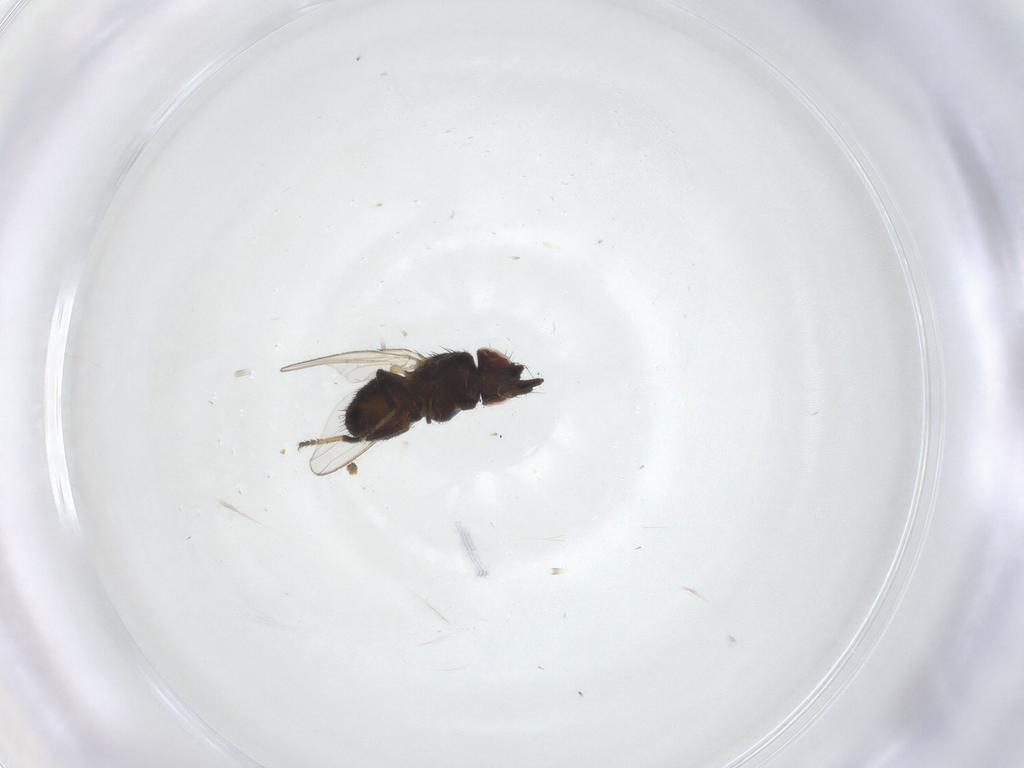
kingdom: Animalia
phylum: Arthropoda
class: Insecta
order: Diptera
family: Milichiidae
